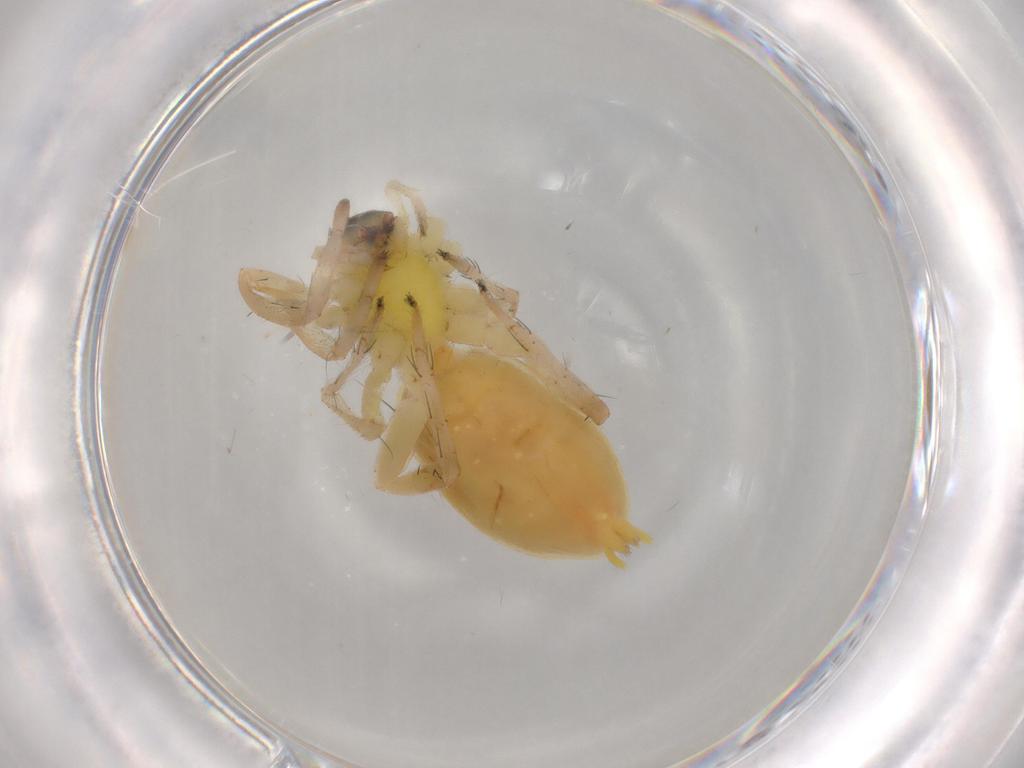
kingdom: Animalia
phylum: Arthropoda
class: Arachnida
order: Araneae
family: Anyphaenidae
